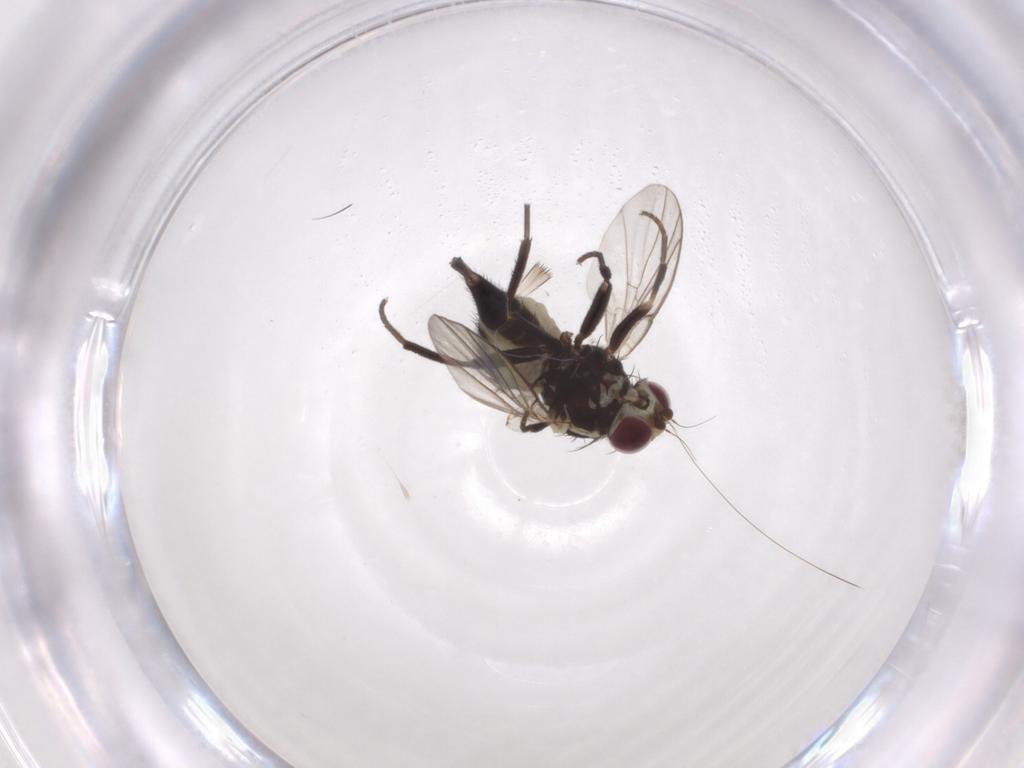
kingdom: Animalia
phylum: Arthropoda
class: Insecta
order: Diptera
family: Agromyzidae
